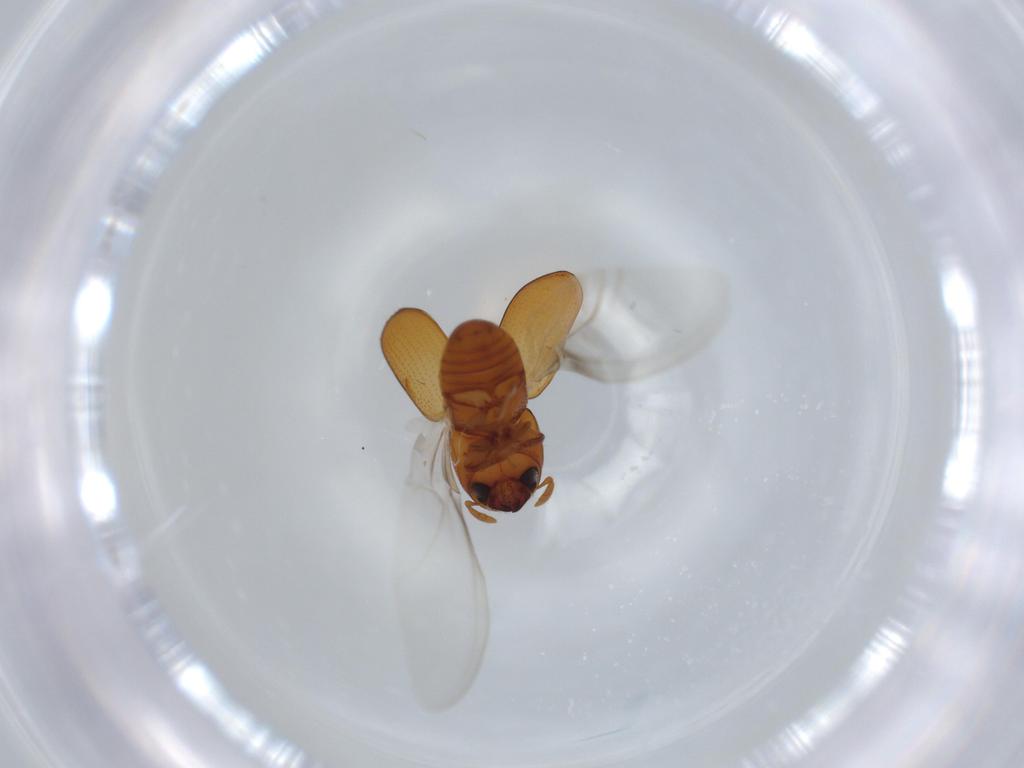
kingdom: Animalia
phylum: Arthropoda
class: Insecta
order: Coleoptera
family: Curculionidae
